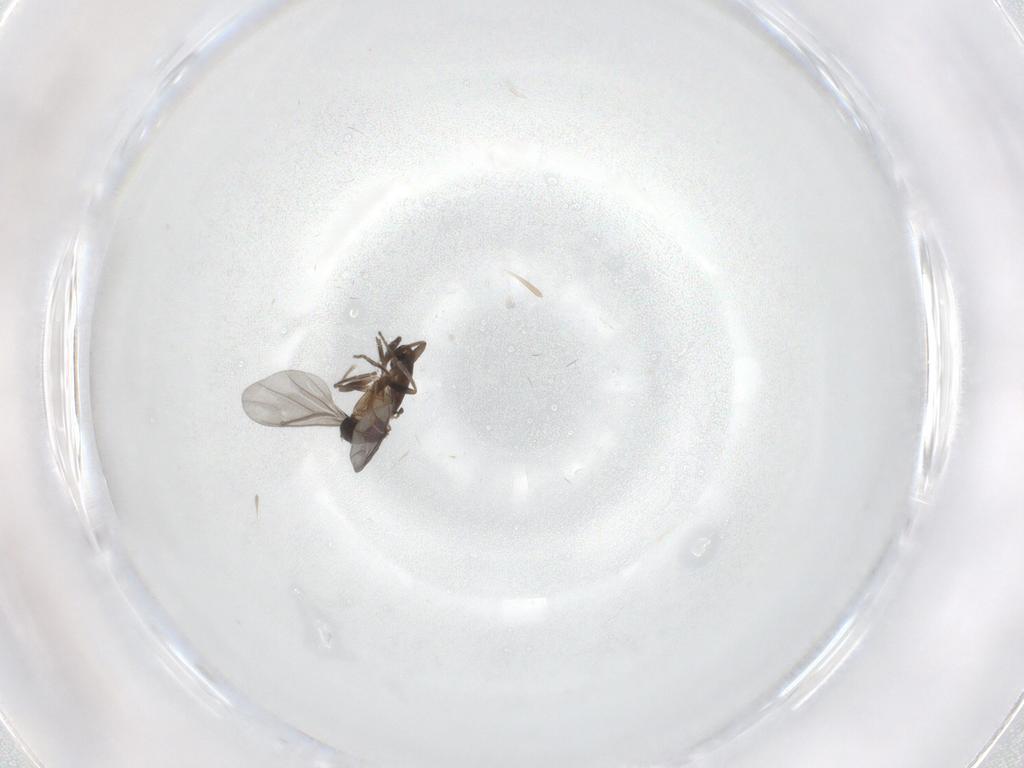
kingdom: Animalia
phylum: Arthropoda
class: Insecta
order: Diptera
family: Phoridae
